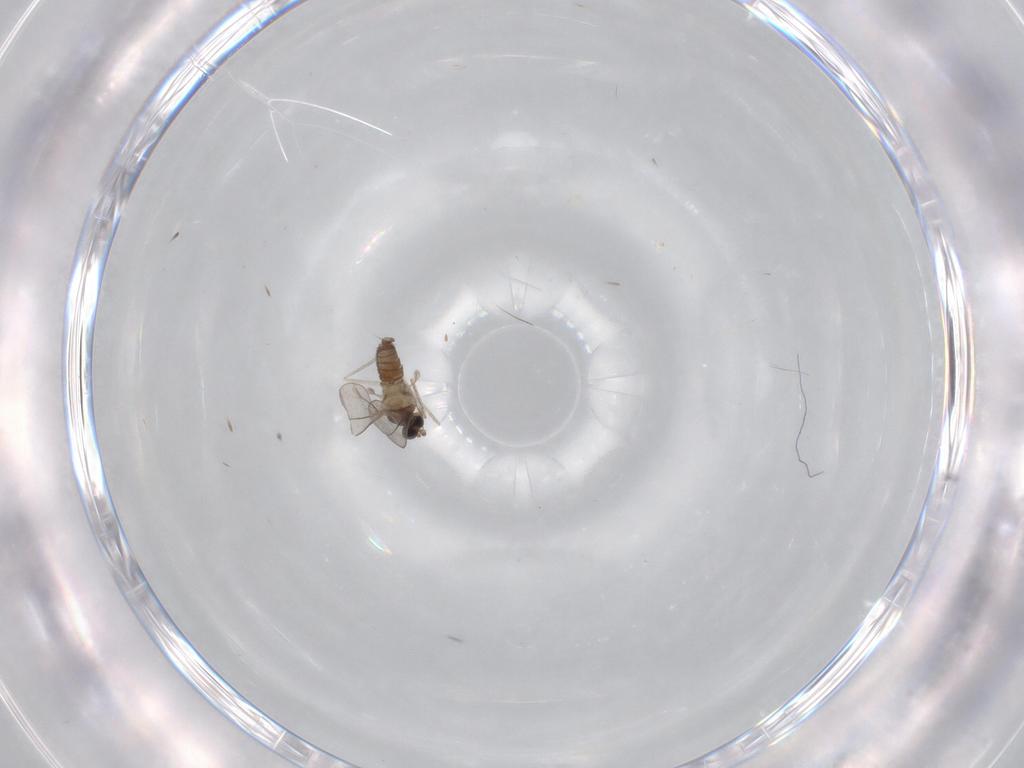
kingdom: Animalia
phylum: Arthropoda
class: Insecta
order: Diptera
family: Cecidomyiidae
